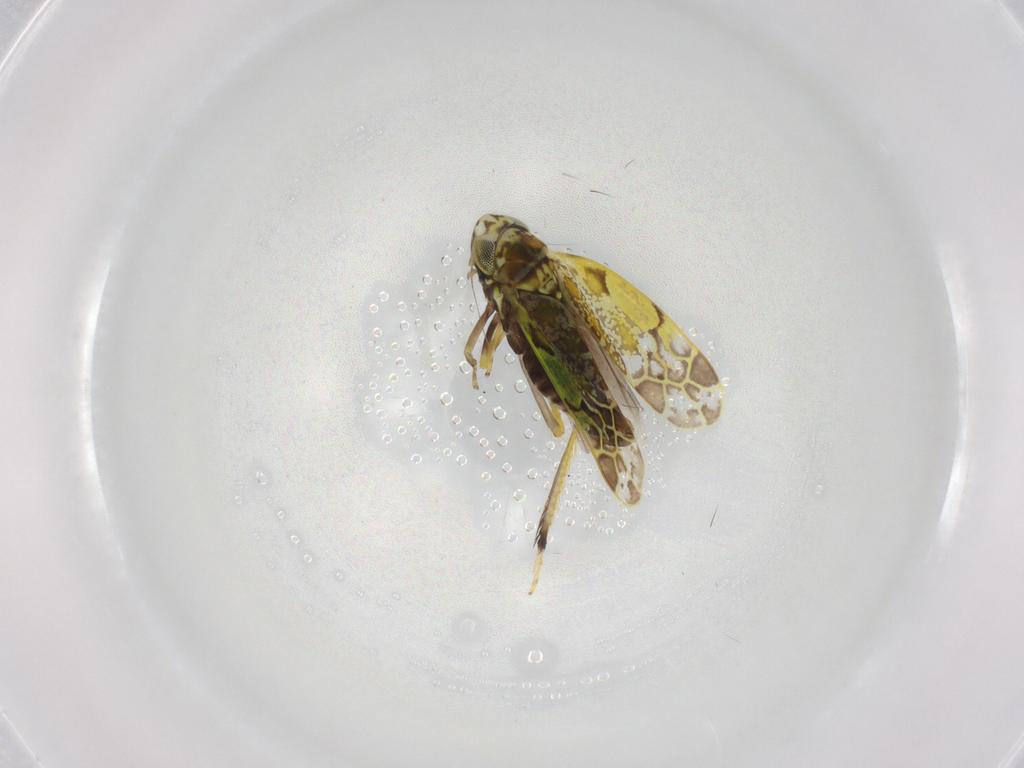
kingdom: Animalia
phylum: Arthropoda
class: Insecta
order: Hemiptera
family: Cicadellidae
